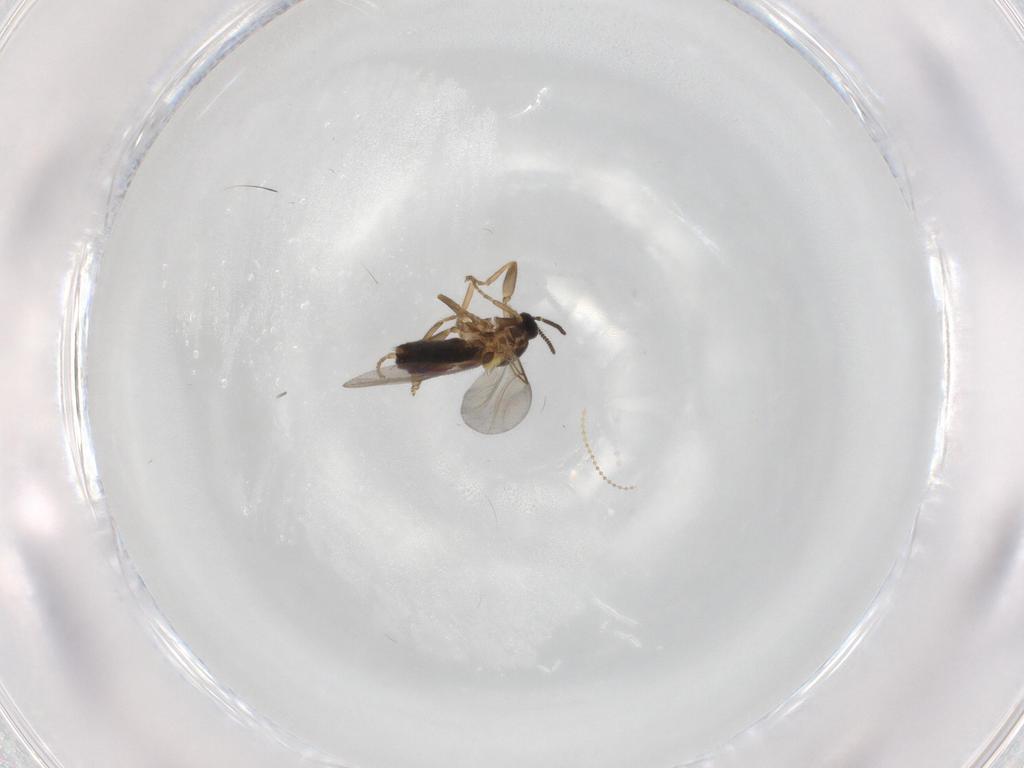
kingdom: Animalia
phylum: Arthropoda
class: Insecta
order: Diptera
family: Scatopsidae
